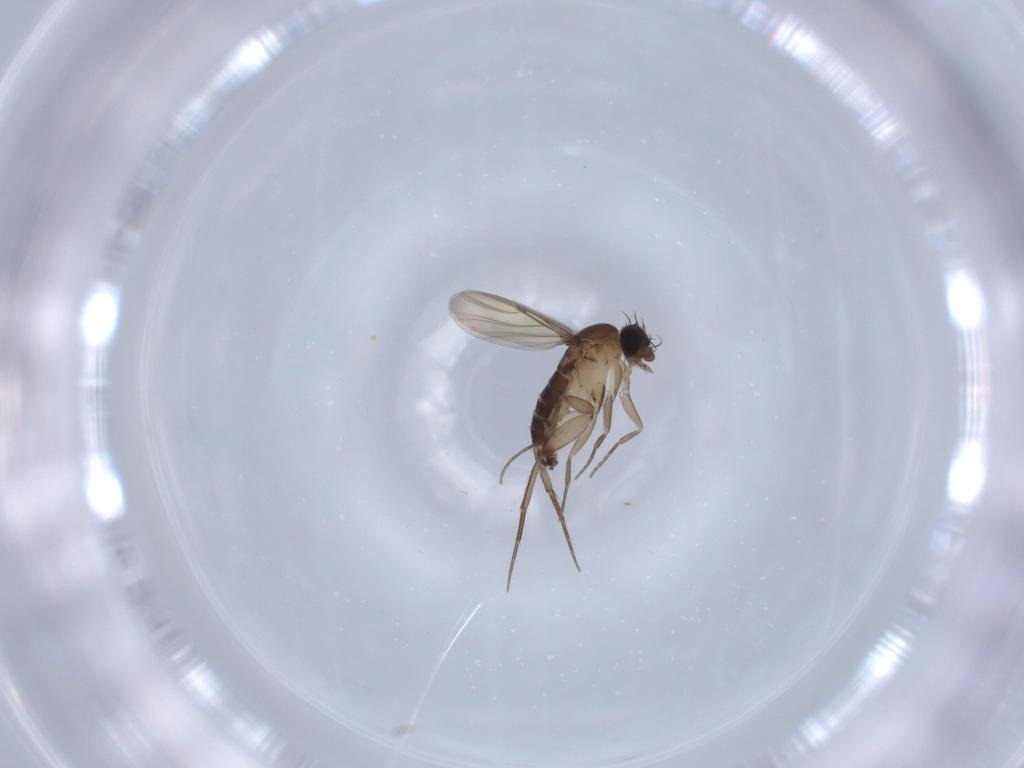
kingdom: Animalia
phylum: Arthropoda
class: Insecta
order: Diptera
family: Phoridae
